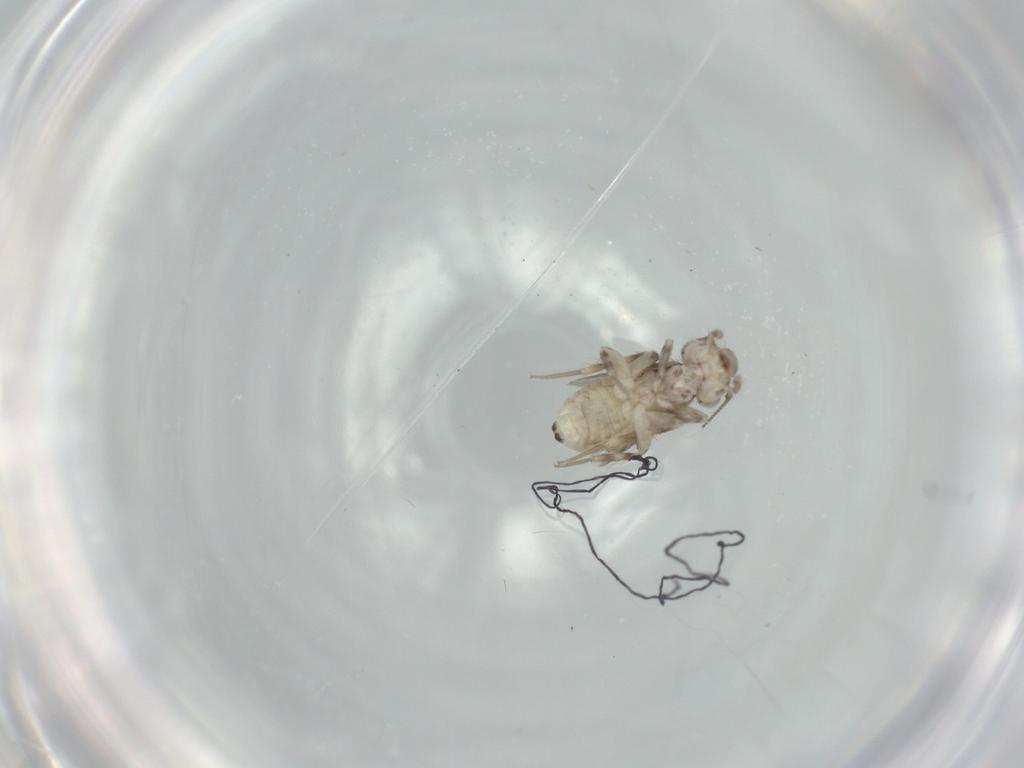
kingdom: Animalia
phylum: Arthropoda
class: Insecta
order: Psocodea
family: Lepidopsocidae
